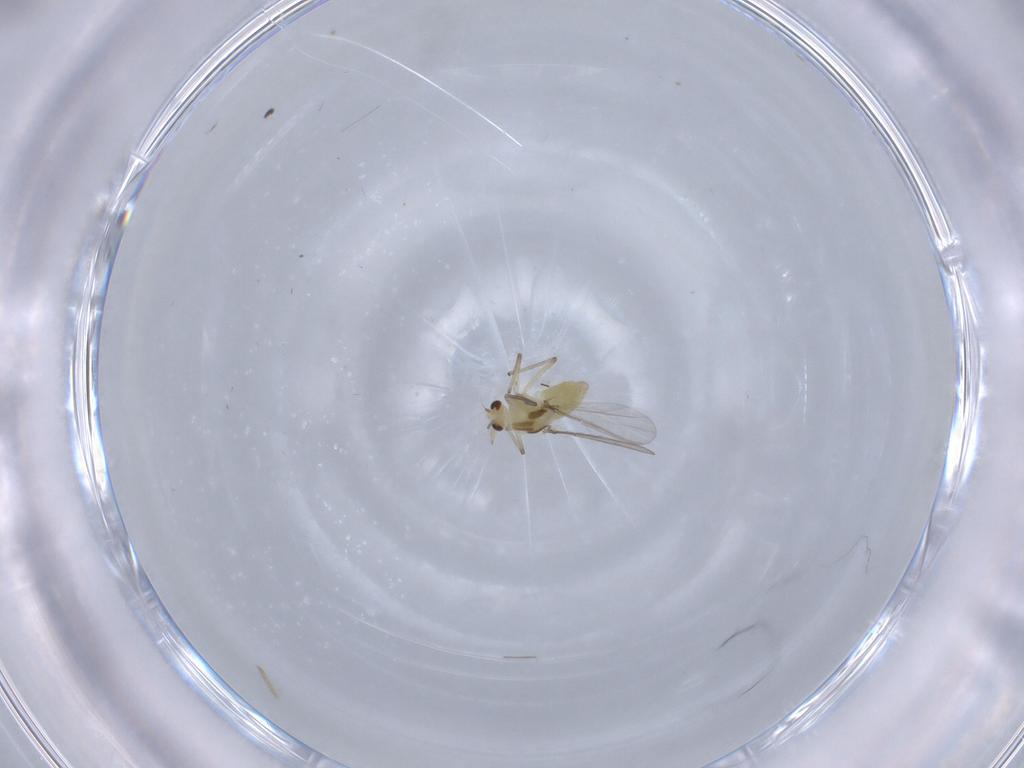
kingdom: Animalia
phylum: Arthropoda
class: Insecta
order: Diptera
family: Chironomidae
